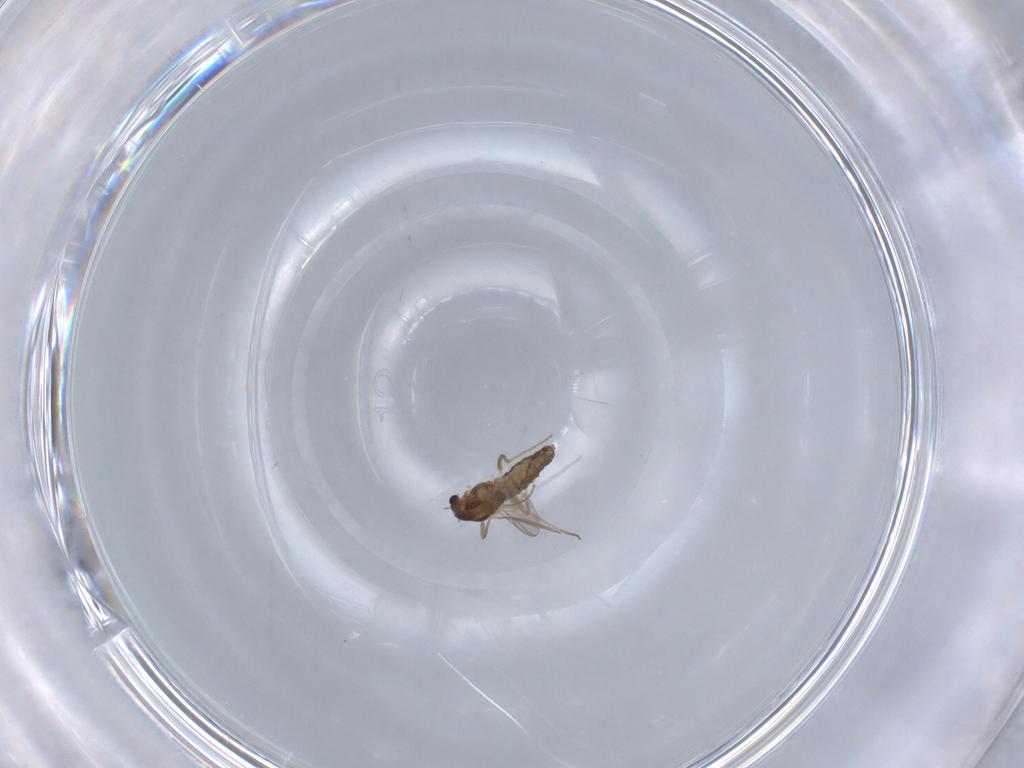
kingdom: Animalia
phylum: Arthropoda
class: Insecta
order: Diptera
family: Chironomidae
